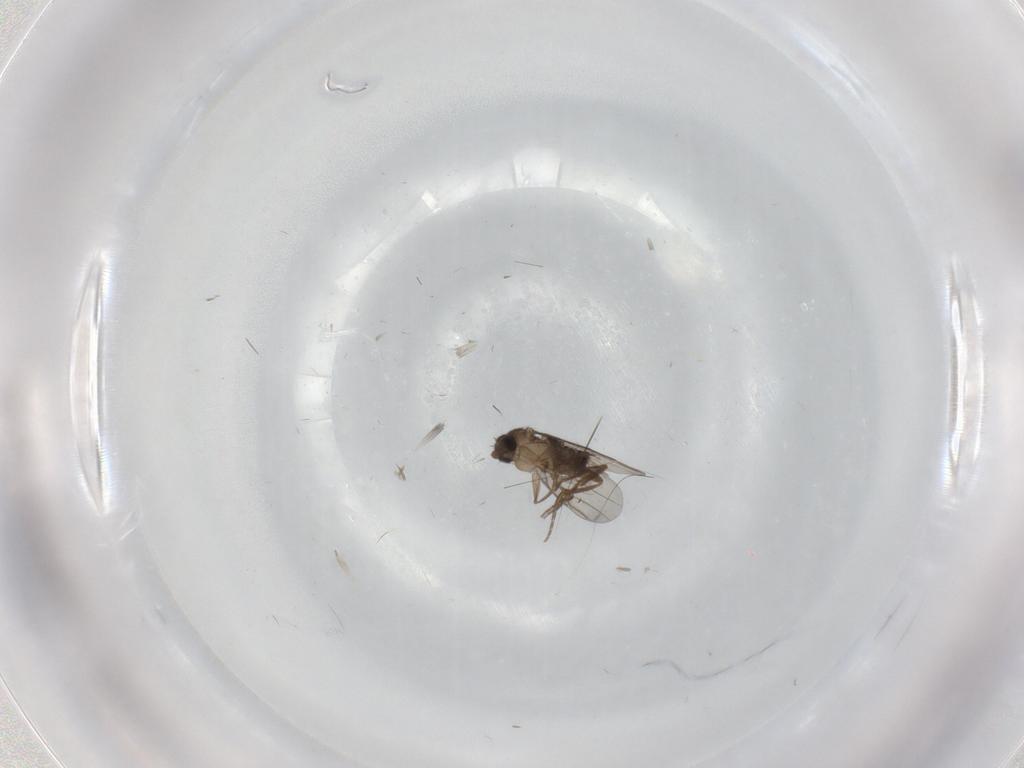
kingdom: Animalia
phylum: Arthropoda
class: Insecta
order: Diptera
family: Phoridae
